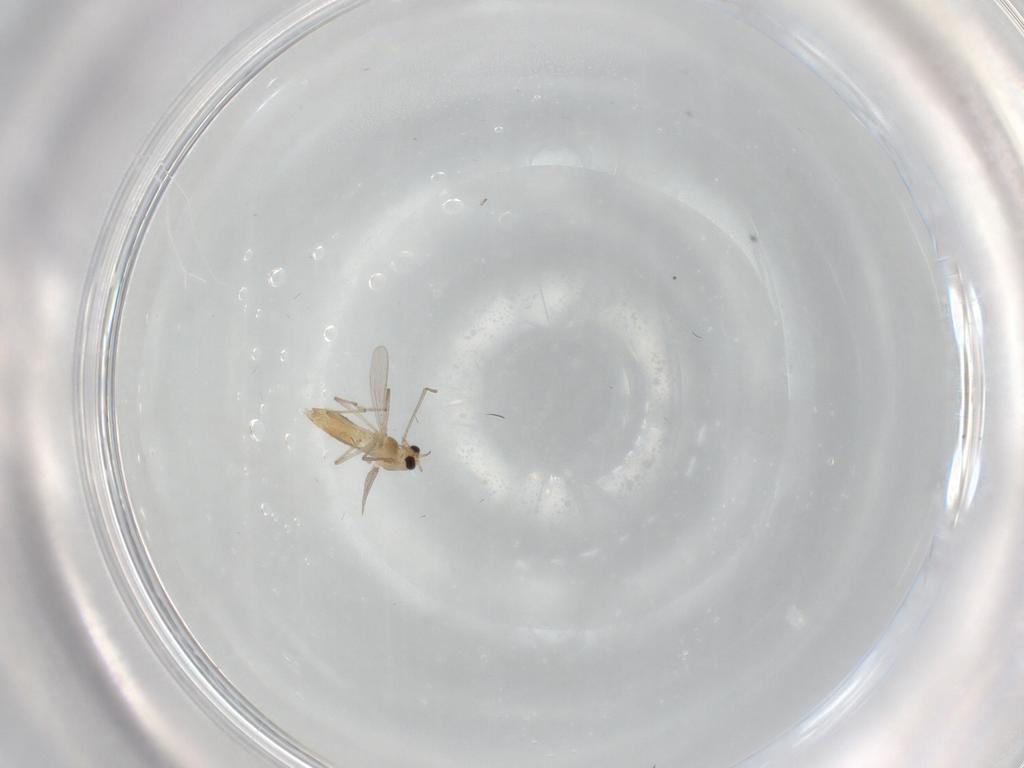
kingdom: Animalia
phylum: Arthropoda
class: Insecta
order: Diptera
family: Chironomidae
